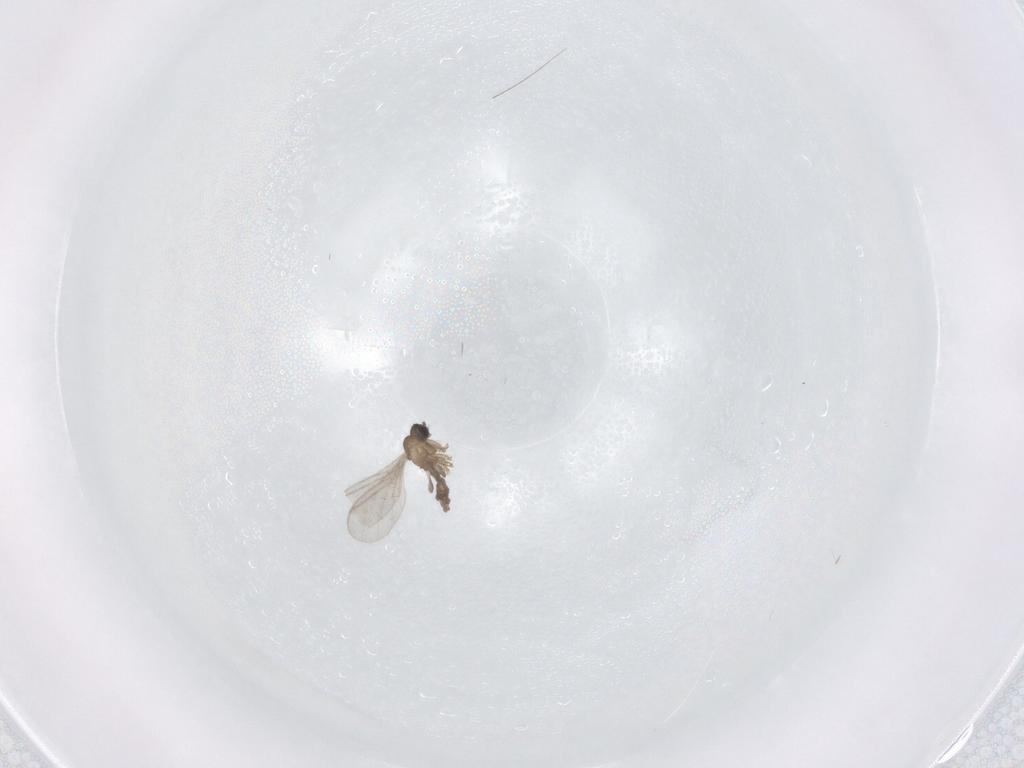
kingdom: Animalia
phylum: Arthropoda
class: Insecta
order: Diptera
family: Sciaridae
